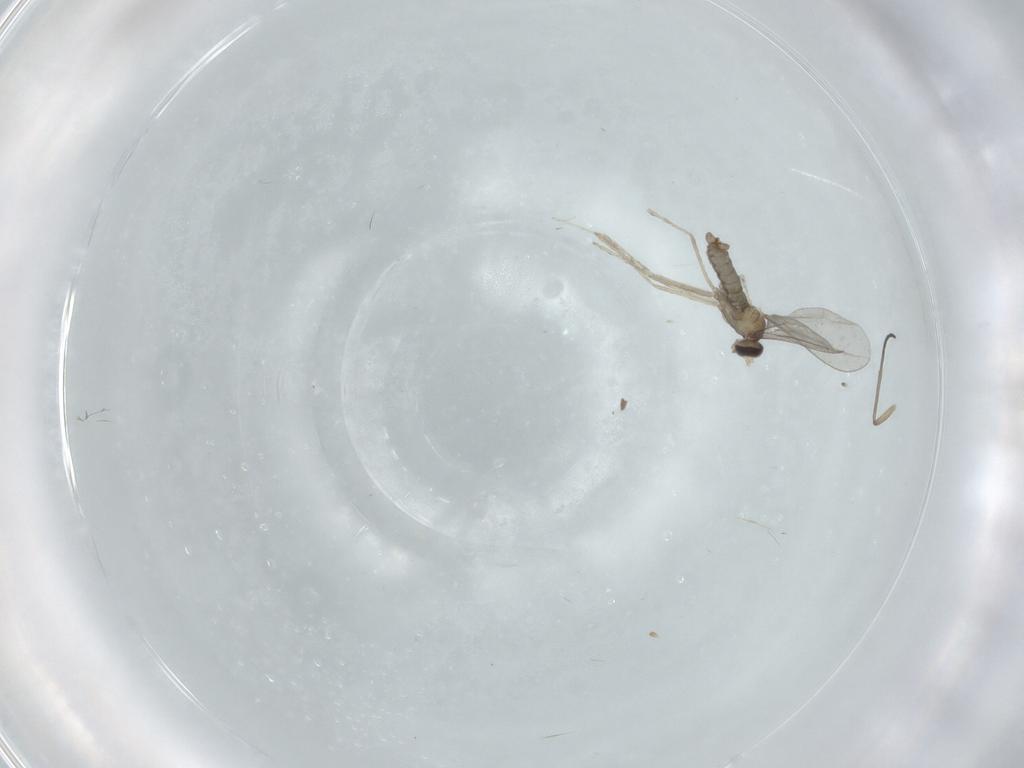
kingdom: Animalia
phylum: Arthropoda
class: Insecta
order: Diptera
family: Cecidomyiidae
